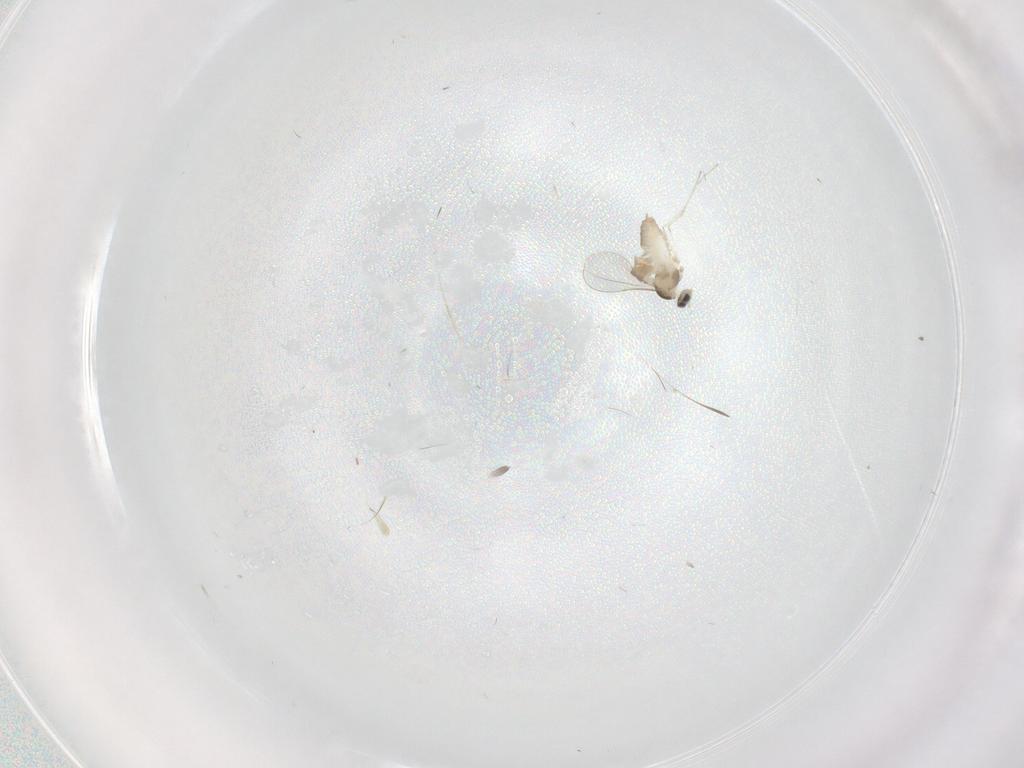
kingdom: Animalia
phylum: Arthropoda
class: Insecta
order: Diptera
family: Cecidomyiidae
